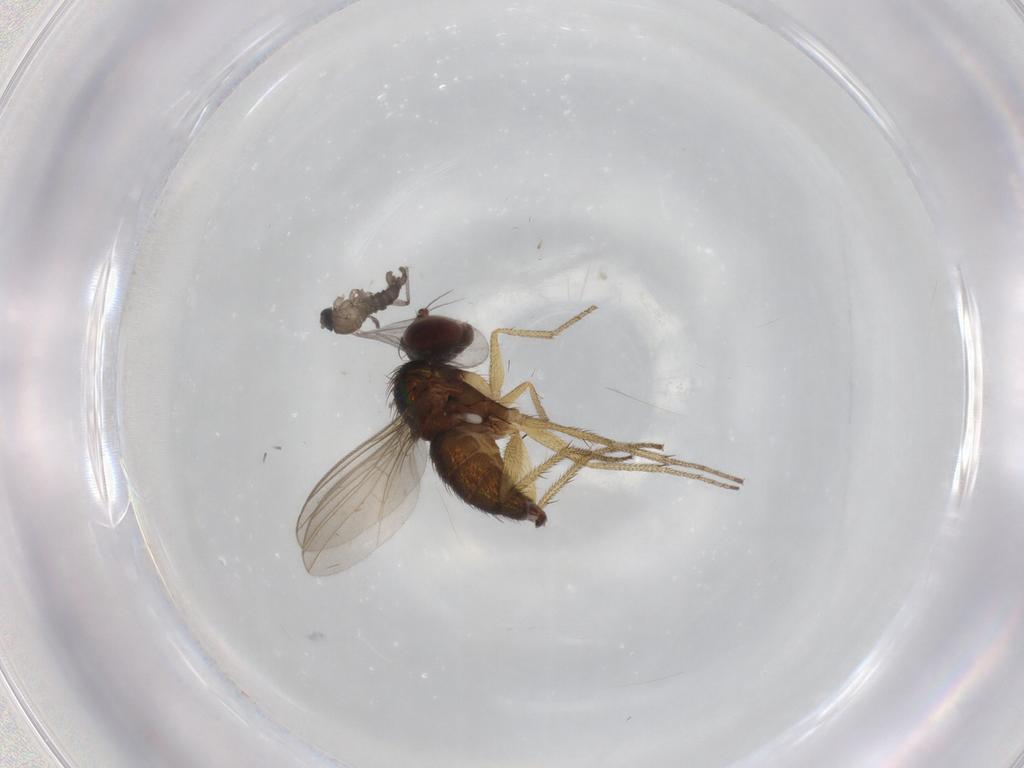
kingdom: Animalia
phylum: Arthropoda
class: Insecta
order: Diptera
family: Sciaridae
